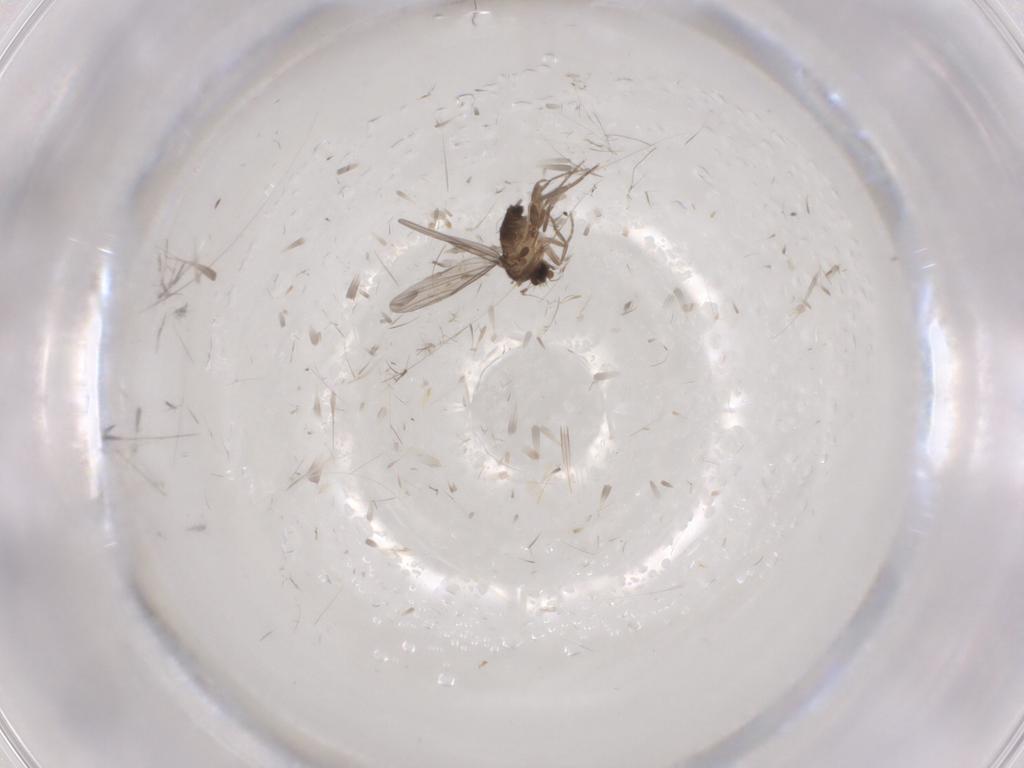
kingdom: Animalia
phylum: Arthropoda
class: Insecta
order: Diptera
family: Phoridae
